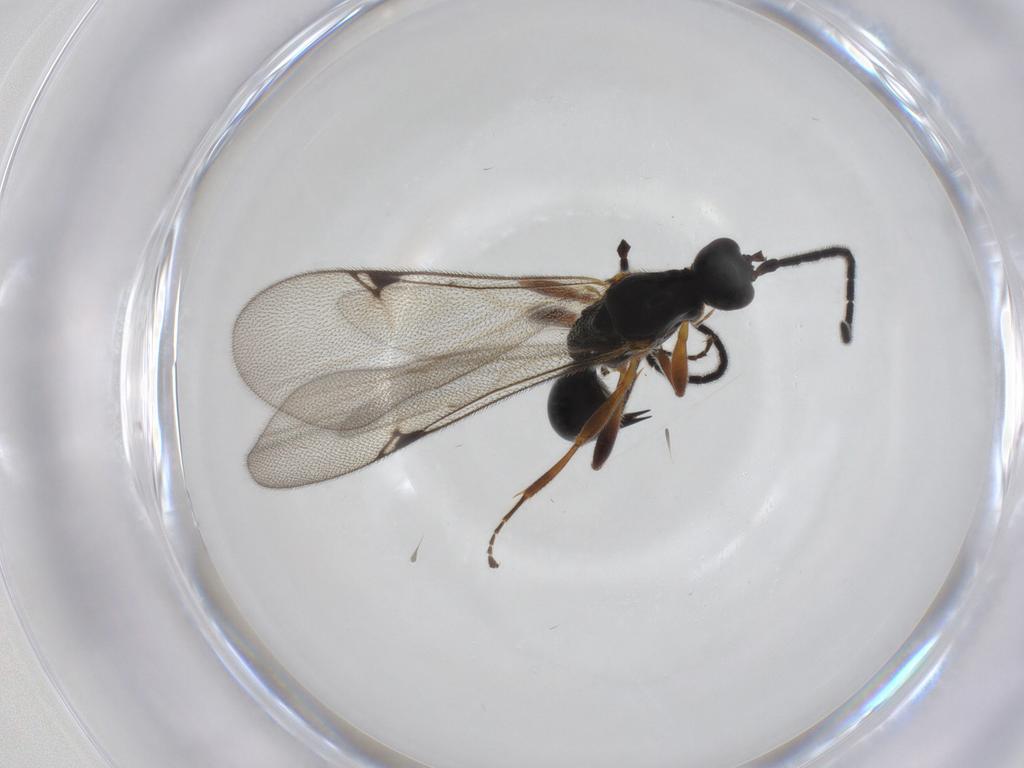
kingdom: Animalia
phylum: Arthropoda
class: Insecta
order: Hymenoptera
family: Proctotrupidae
